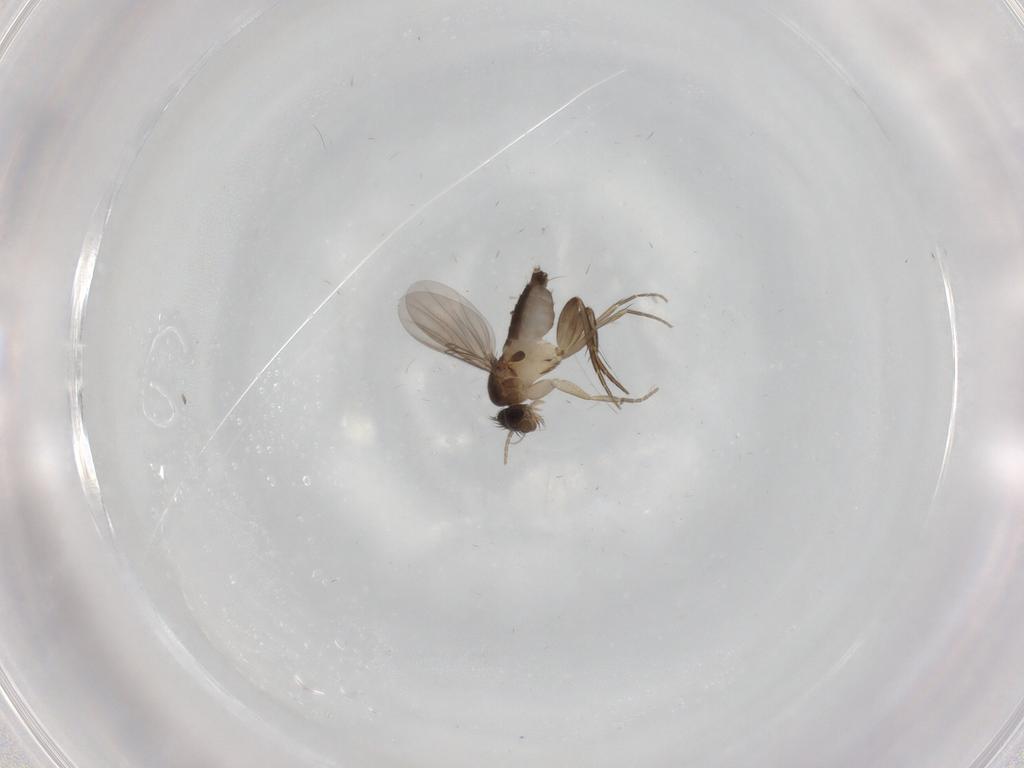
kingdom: Animalia
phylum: Arthropoda
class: Insecta
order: Diptera
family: Phoridae
